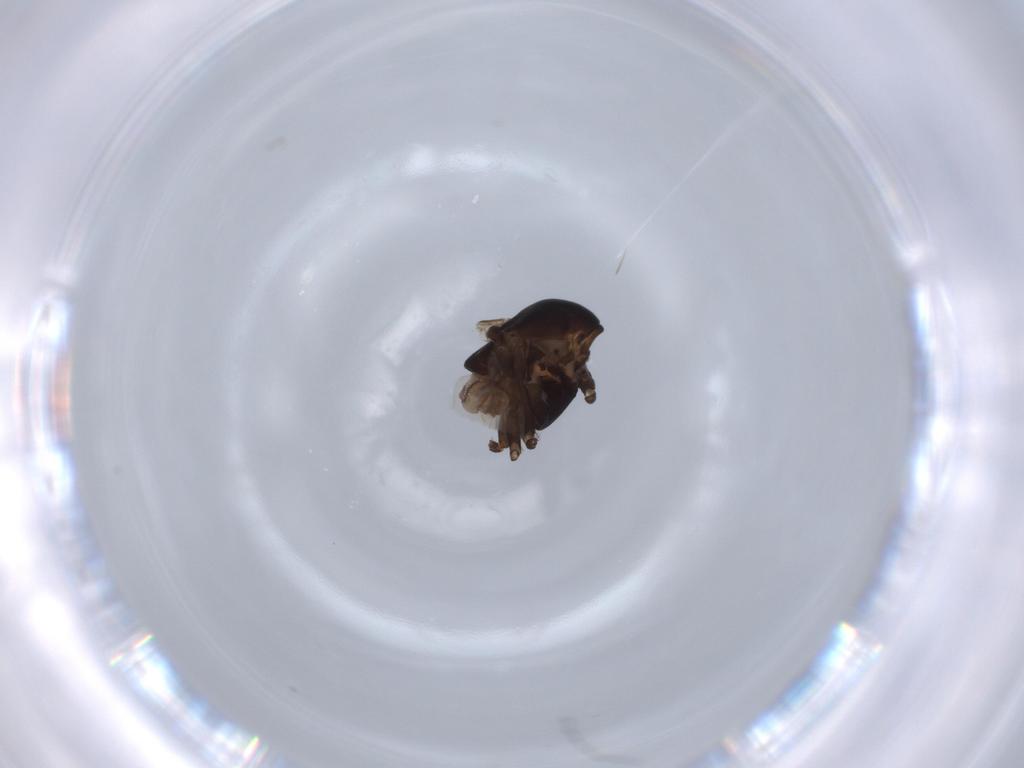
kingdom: Animalia
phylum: Arthropoda
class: Insecta
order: Diptera
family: Chironomidae
